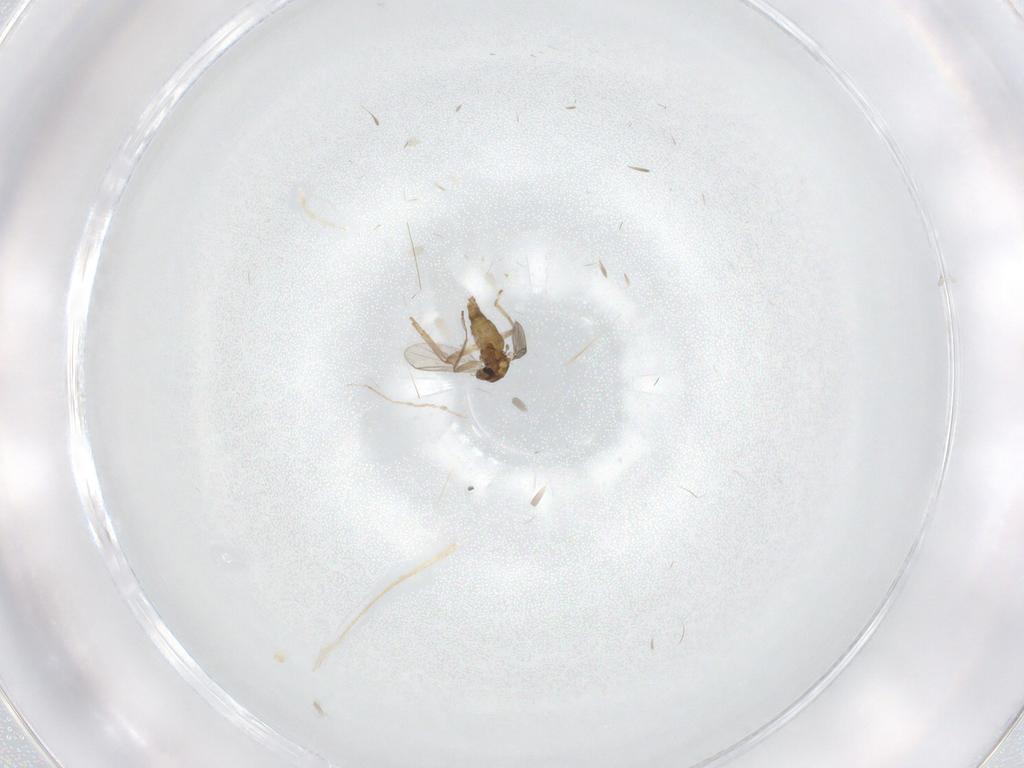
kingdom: Animalia
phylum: Arthropoda
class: Insecta
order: Diptera
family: Chironomidae
